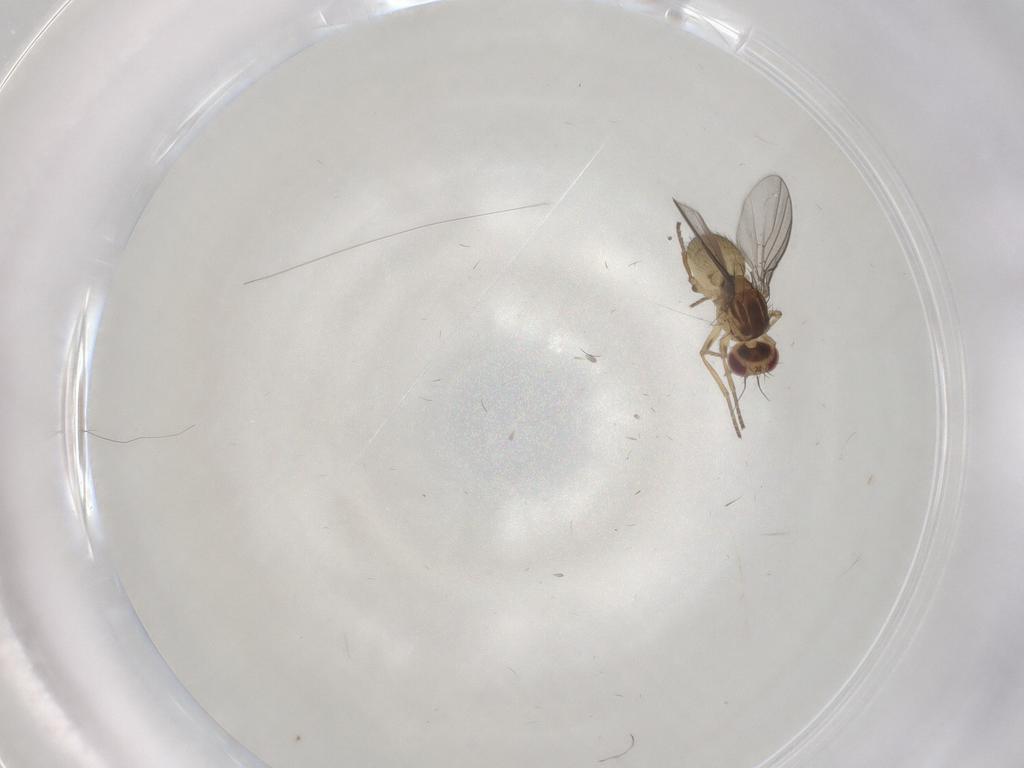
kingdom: Animalia
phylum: Arthropoda
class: Insecta
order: Diptera
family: Agromyzidae
